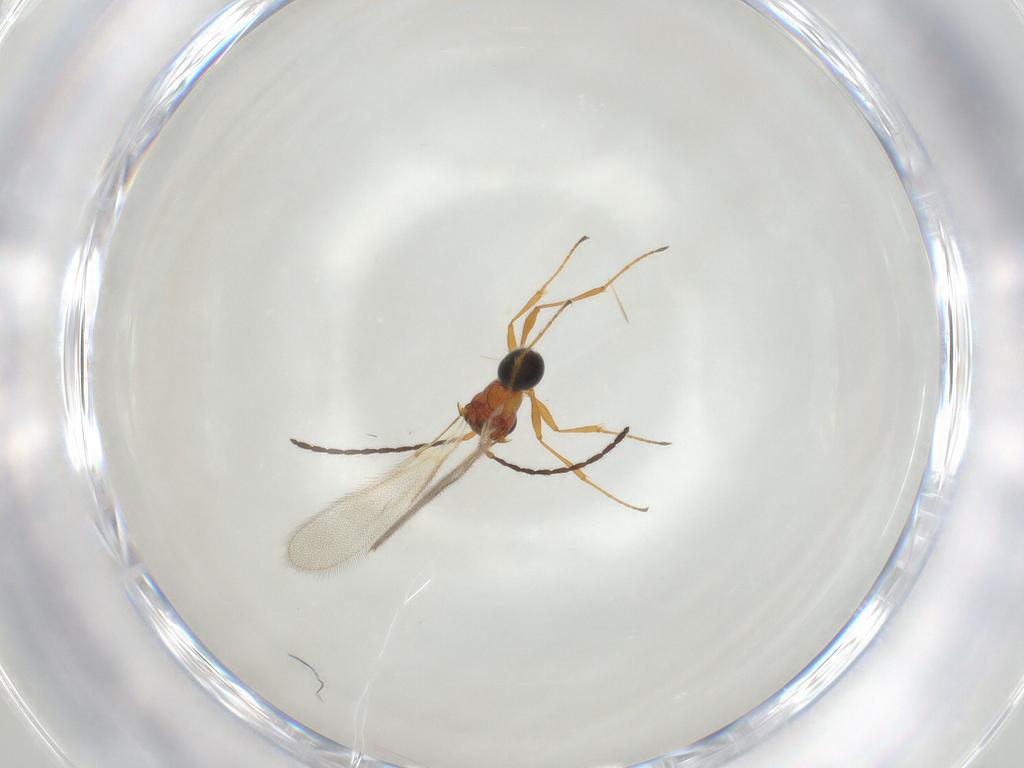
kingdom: Animalia
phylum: Arthropoda
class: Insecta
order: Hymenoptera
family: Diapriidae
